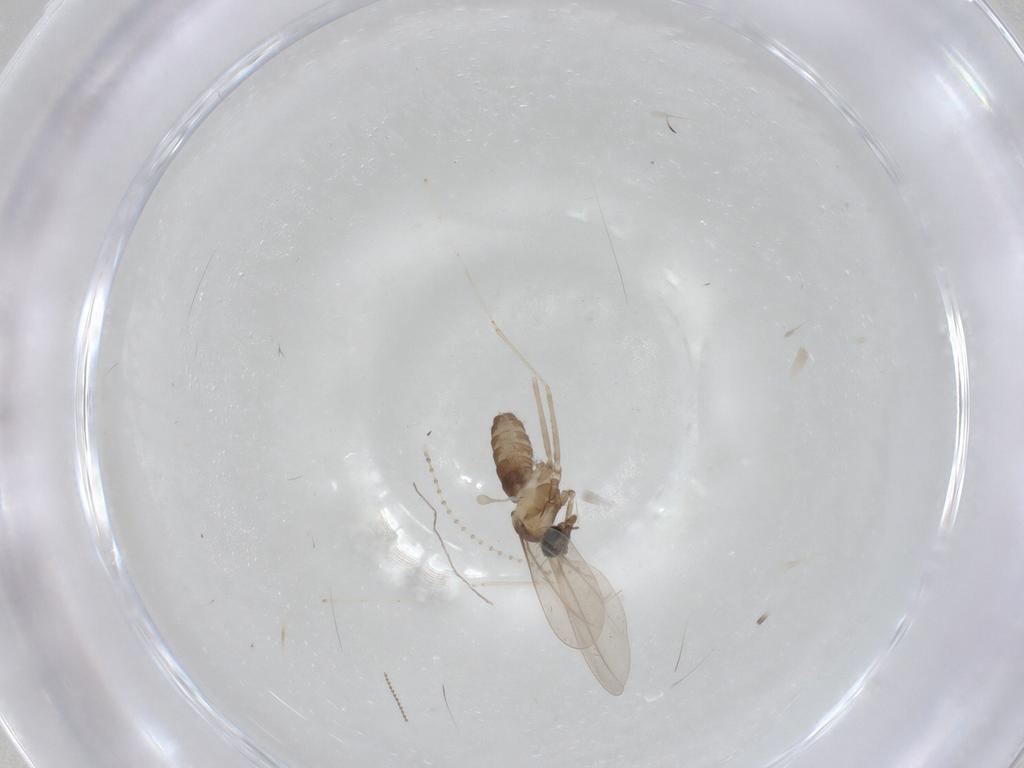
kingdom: Animalia
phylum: Arthropoda
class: Insecta
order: Diptera
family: Cecidomyiidae
